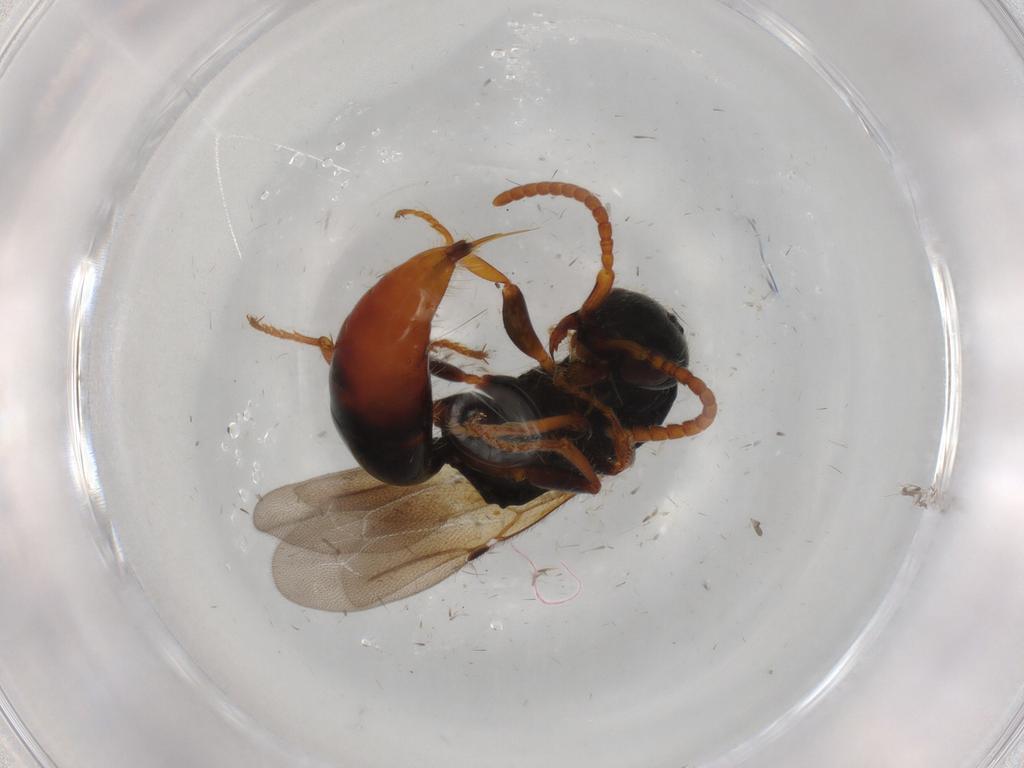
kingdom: Animalia
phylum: Arthropoda
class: Insecta
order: Hymenoptera
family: Bethylidae
